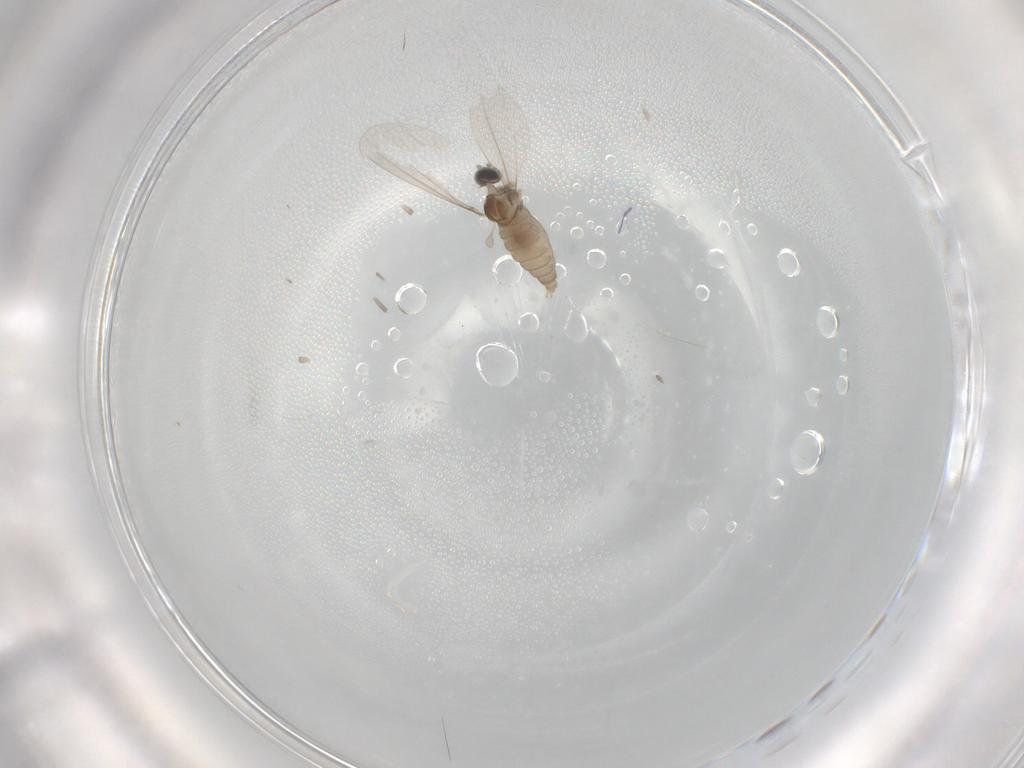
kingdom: Animalia
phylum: Arthropoda
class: Insecta
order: Diptera
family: Cecidomyiidae
